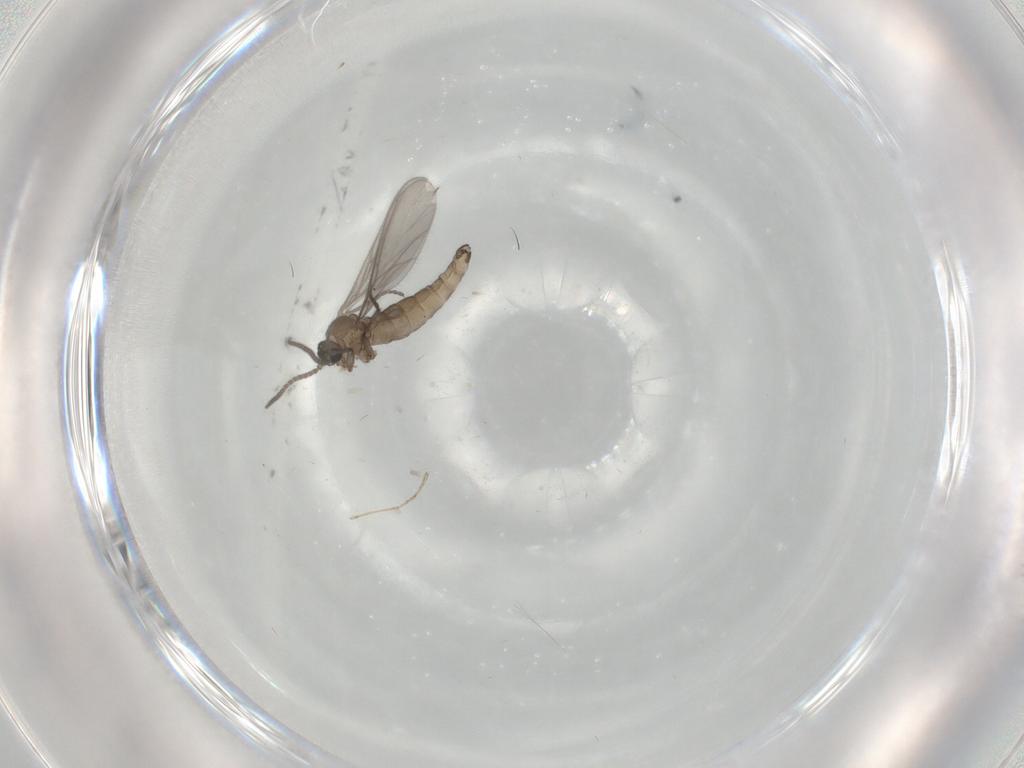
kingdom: Animalia
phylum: Arthropoda
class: Insecta
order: Diptera
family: Sciaridae
